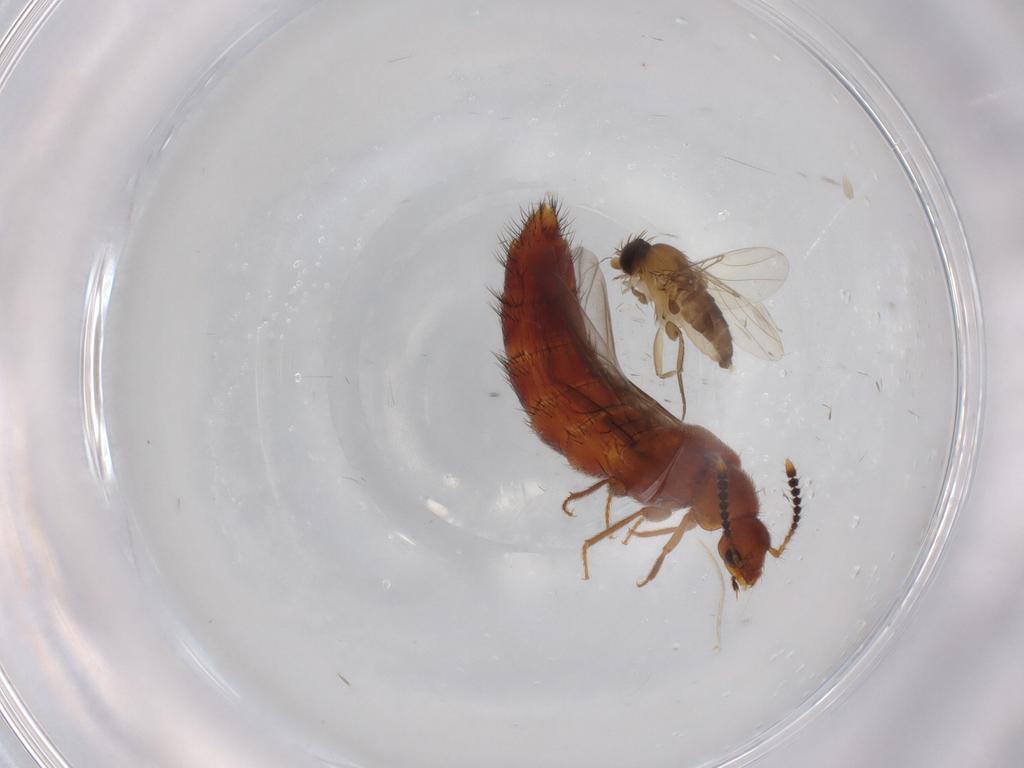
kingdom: Animalia
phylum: Arthropoda
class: Insecta
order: Diptera
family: Phoridae
